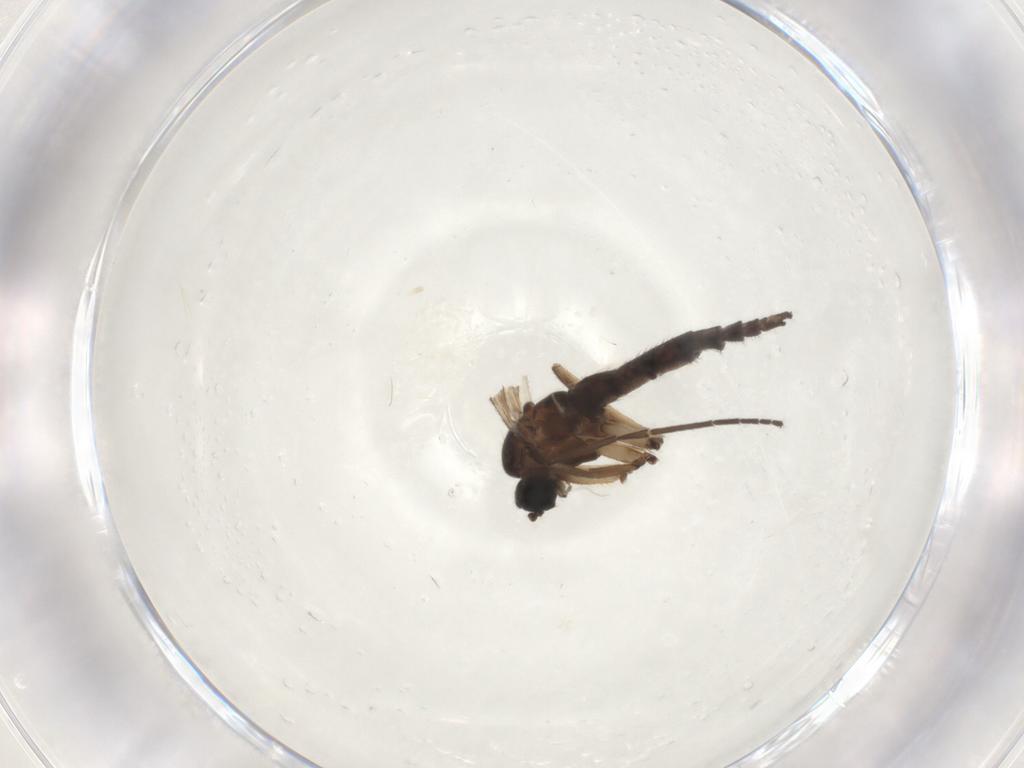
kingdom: Animalia
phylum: Arthropoda
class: Insecta
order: Diptera
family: Sciaridae
